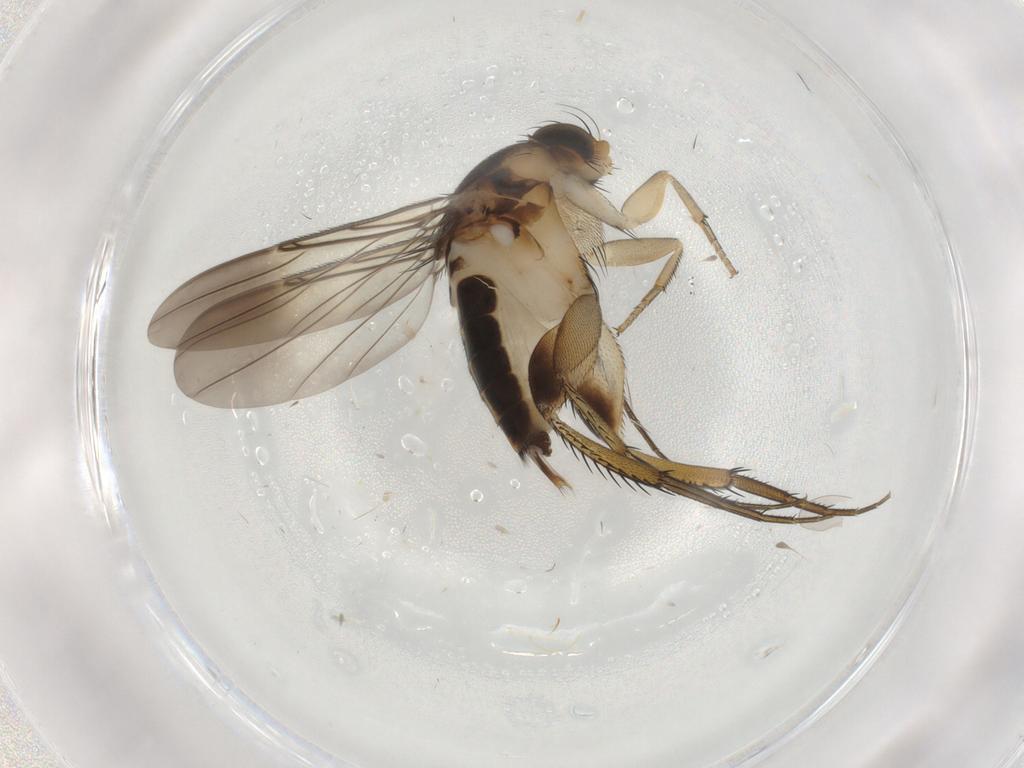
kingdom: Animalia
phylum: Arthropoda
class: Insecta
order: Diptera
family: Phoridae
